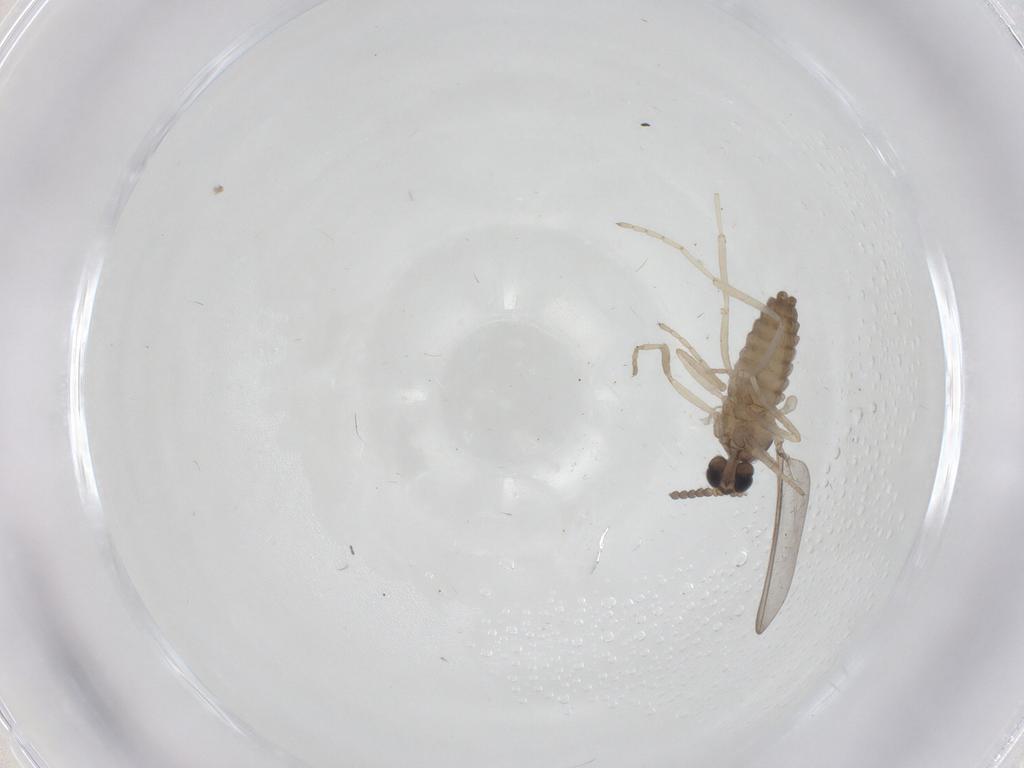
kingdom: Animalia
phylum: Arthropoda
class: Insecta
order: Diptera
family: Cecidomyiidae
